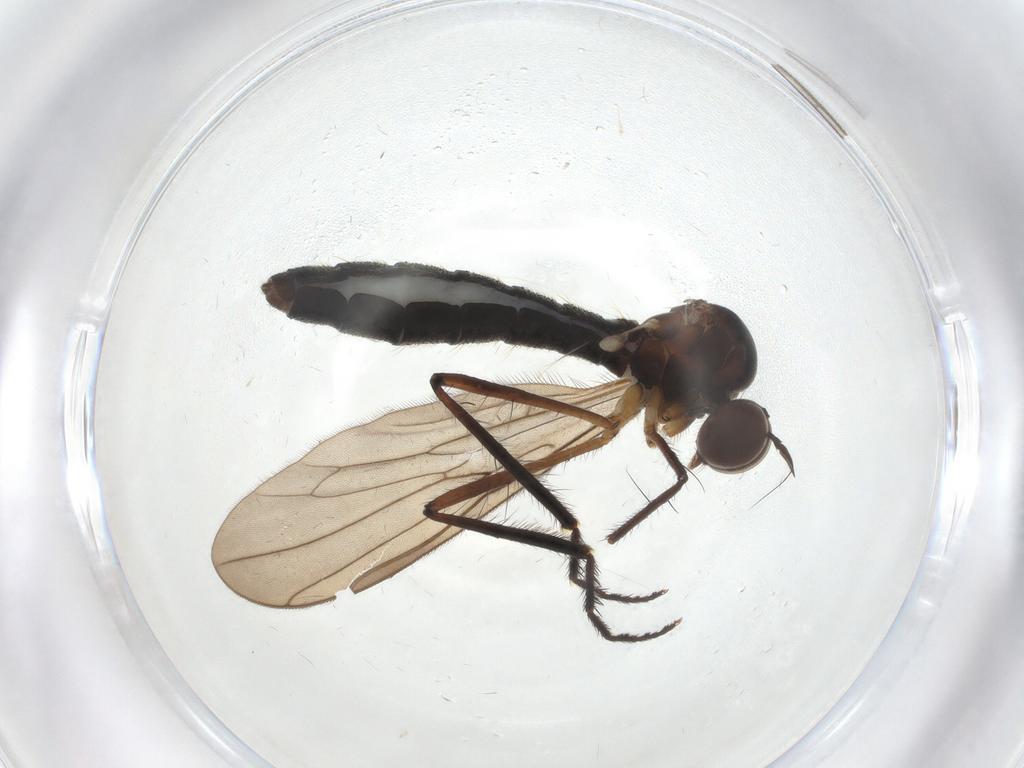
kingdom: Animalia
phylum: Arthropoda
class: Insecta
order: Diptera
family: Hybotidae
